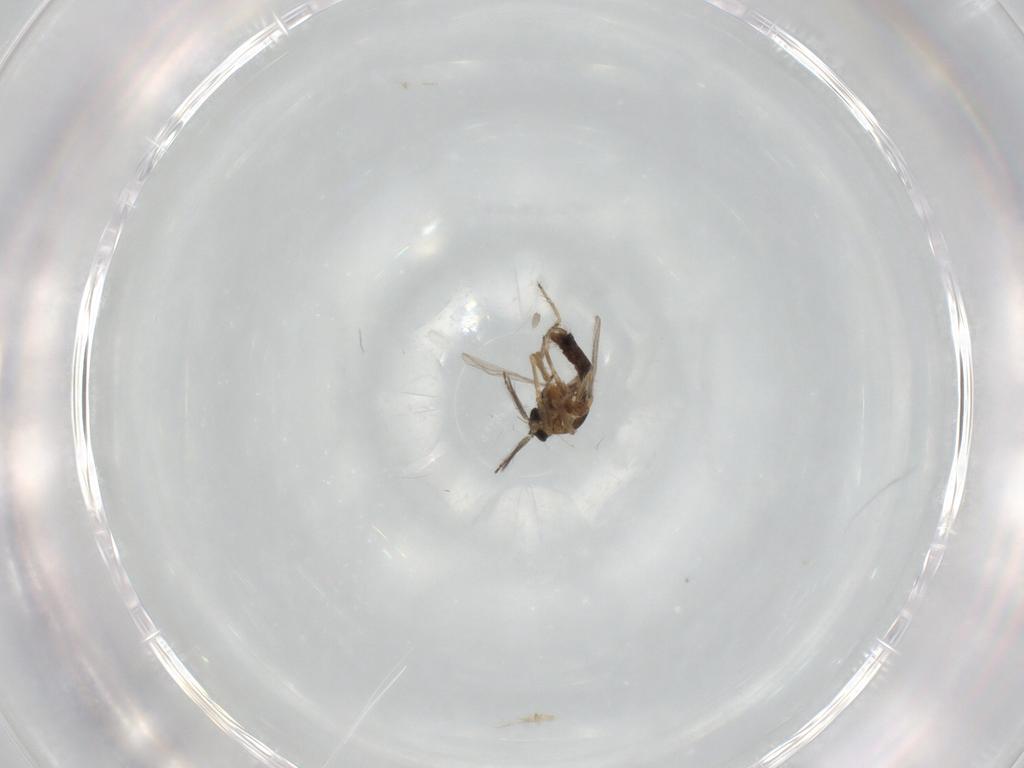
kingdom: Animalia
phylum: Arthropoda
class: Insecta
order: Diptera
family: Ceratopogonidae
